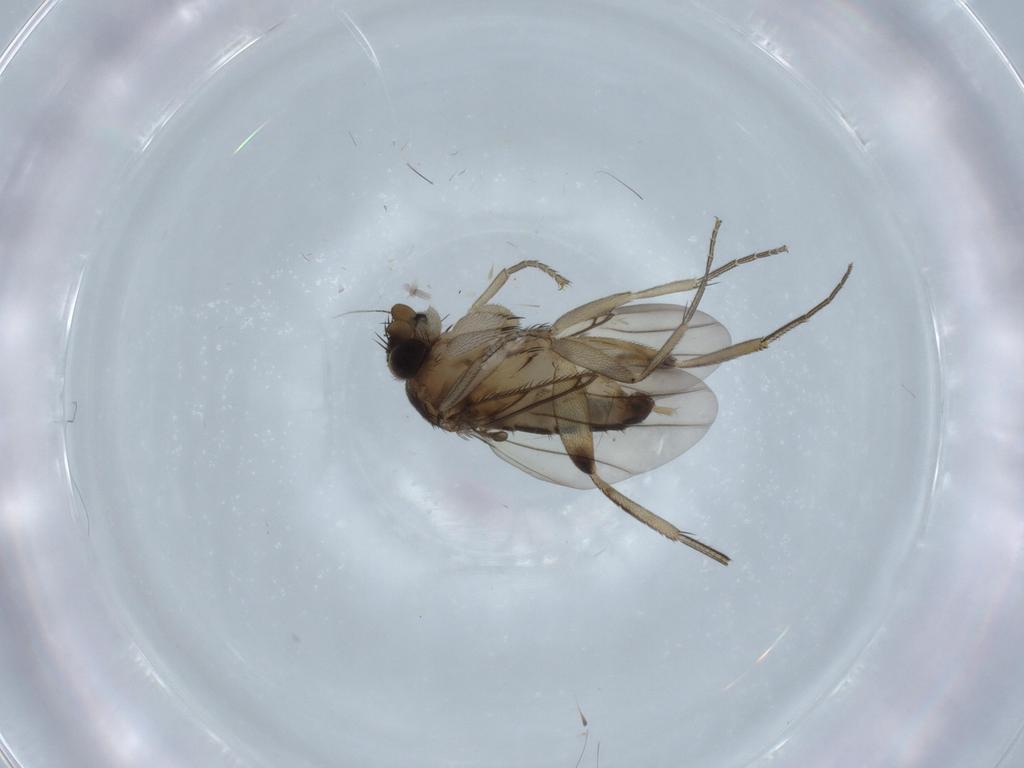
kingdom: Animalia
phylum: Arthropoda
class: Insecta
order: Diptera
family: Phoridae
